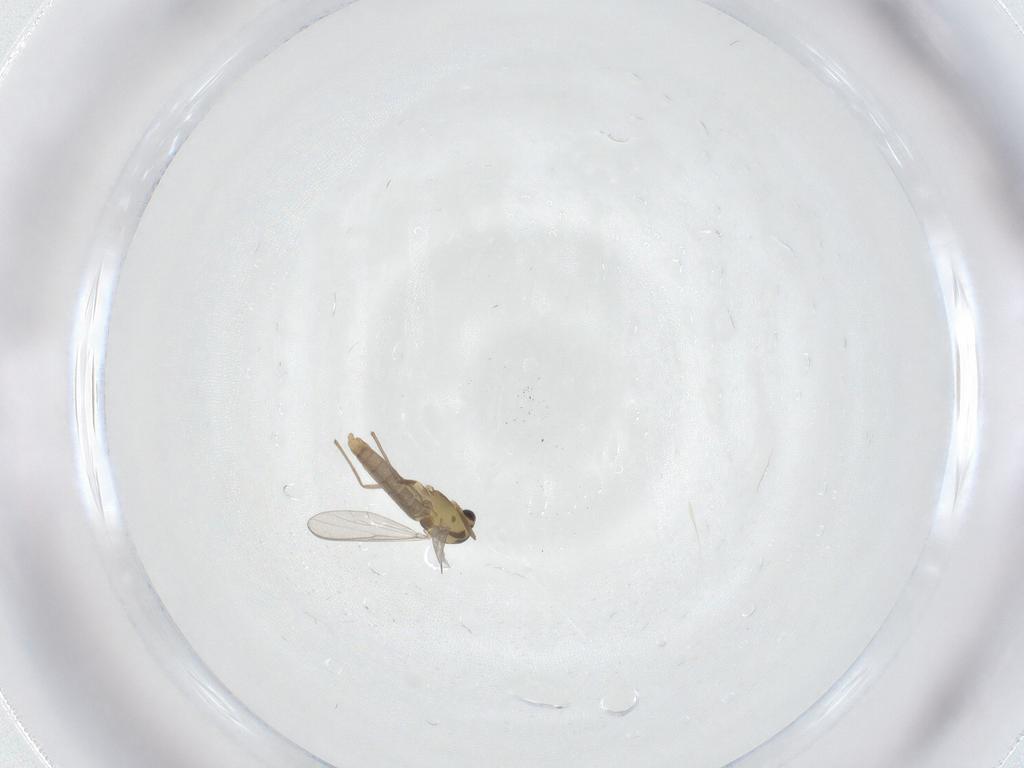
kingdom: Animalia
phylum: Arthropoda
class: Insecta
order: Diptera
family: Chironomidae
